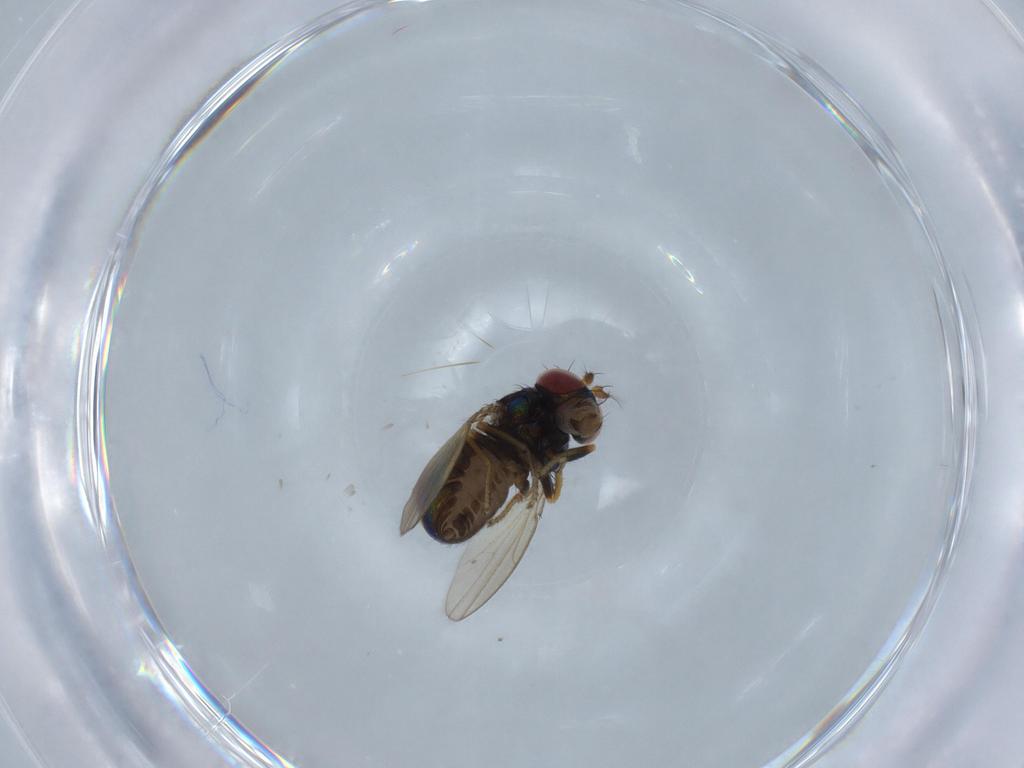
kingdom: Animalia
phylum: Arthropoda
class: Insecta
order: Diptera
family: Ephydridae
